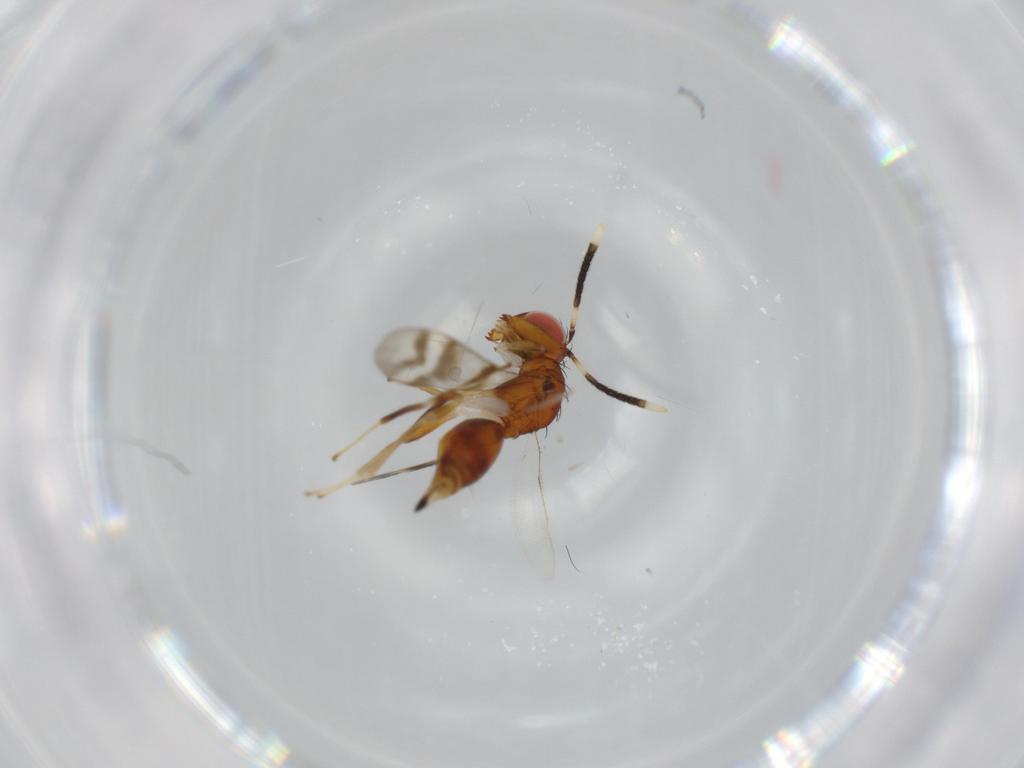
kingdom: Animalia
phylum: Arthropoda
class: Insecta
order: Hymenoptera
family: Diparidae
